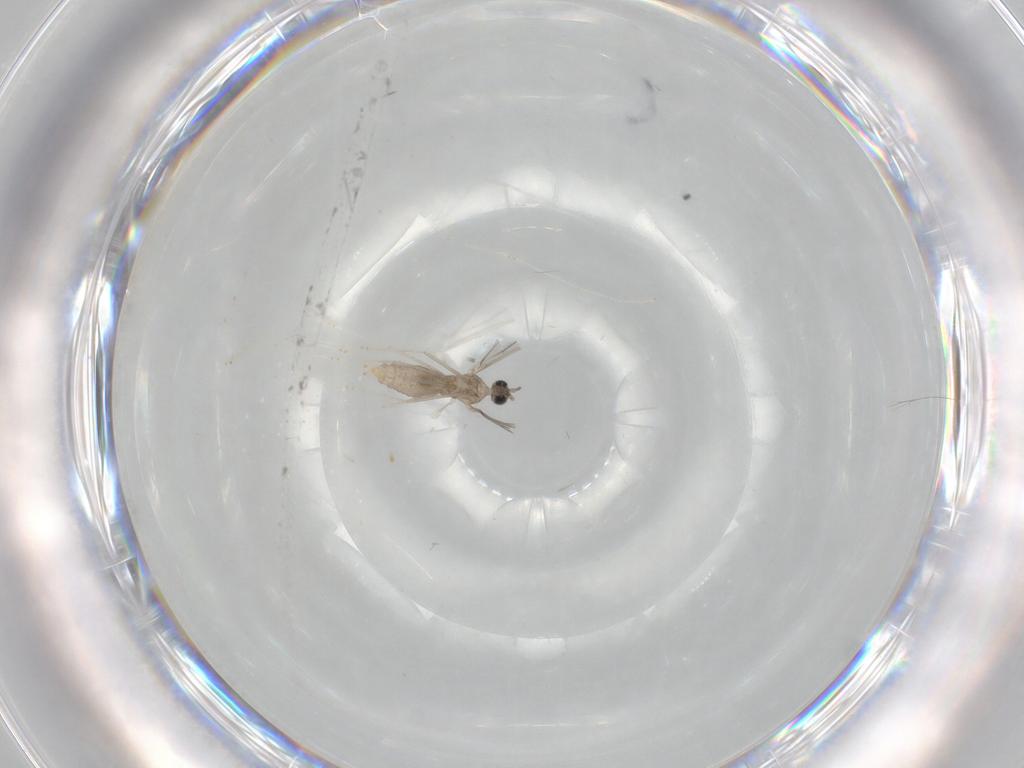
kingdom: Animalia
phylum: Arthropoda
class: Insecta
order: Diptera
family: Cecidomyiidae
